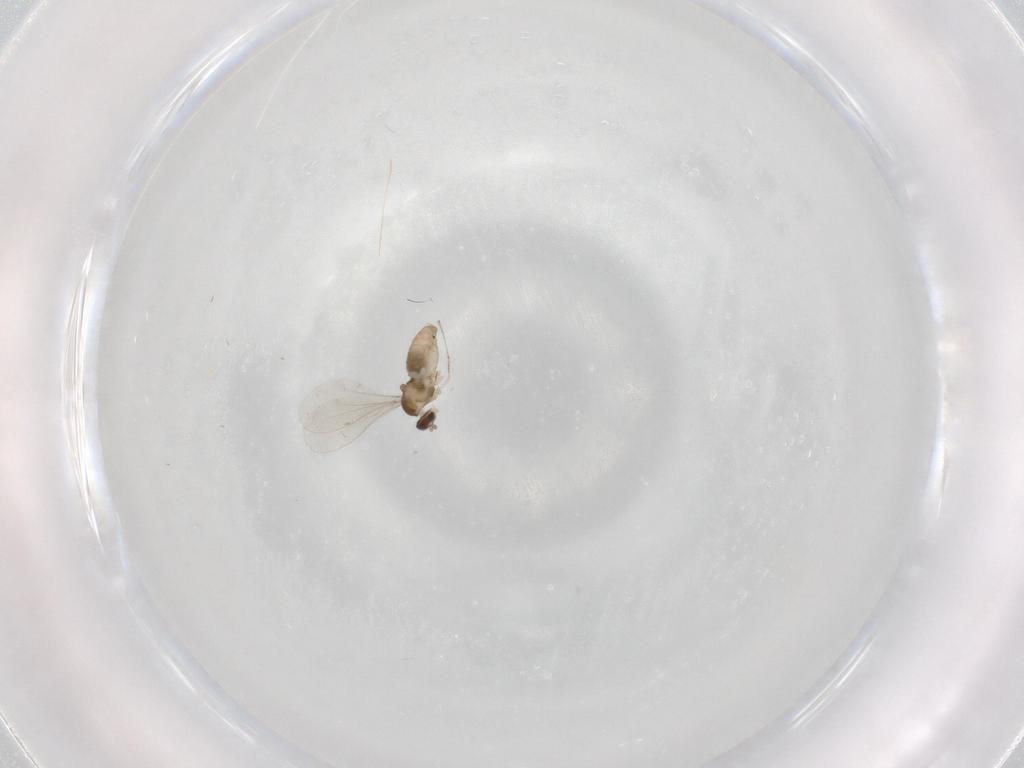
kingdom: Animalia
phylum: Arthropoda
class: Insecta
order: Diptera
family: Cecidomyiidae
